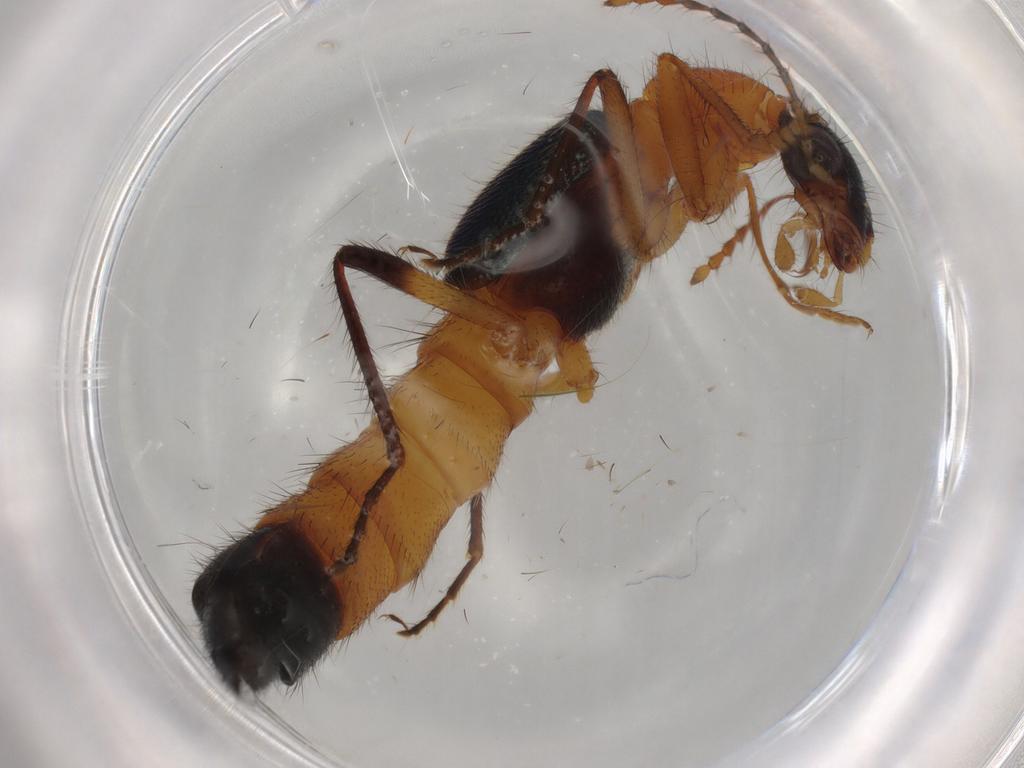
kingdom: Animalia
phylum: Arthropoda
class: Insecta
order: Coleoptera
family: Staphylinidae
